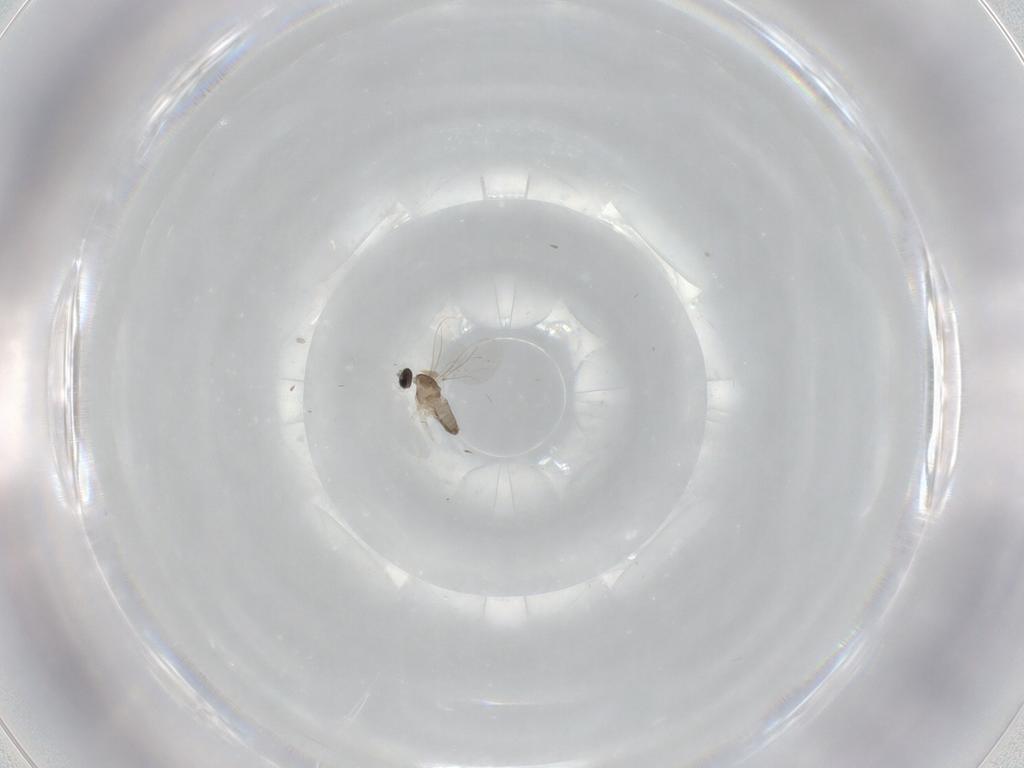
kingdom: Animalia
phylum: Arthropoda
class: Insecta
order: Diptera
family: Cecidomyiidae
